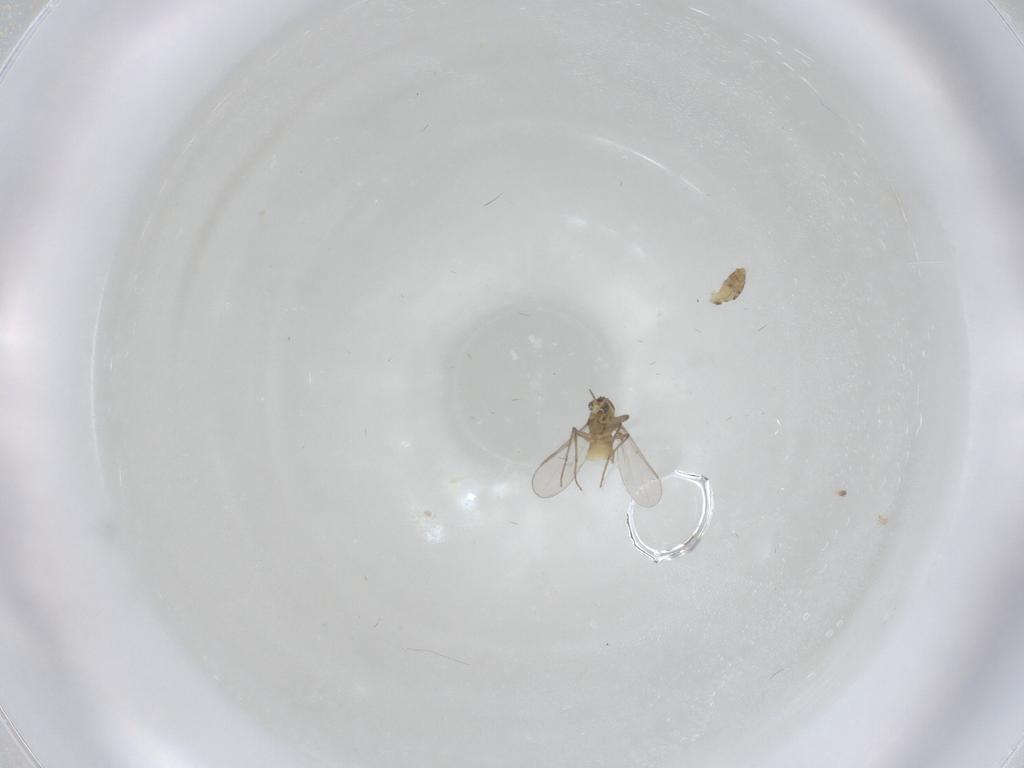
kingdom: Animalia
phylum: Arthropoda
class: Insecta
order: Diptera
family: Chironomidae
